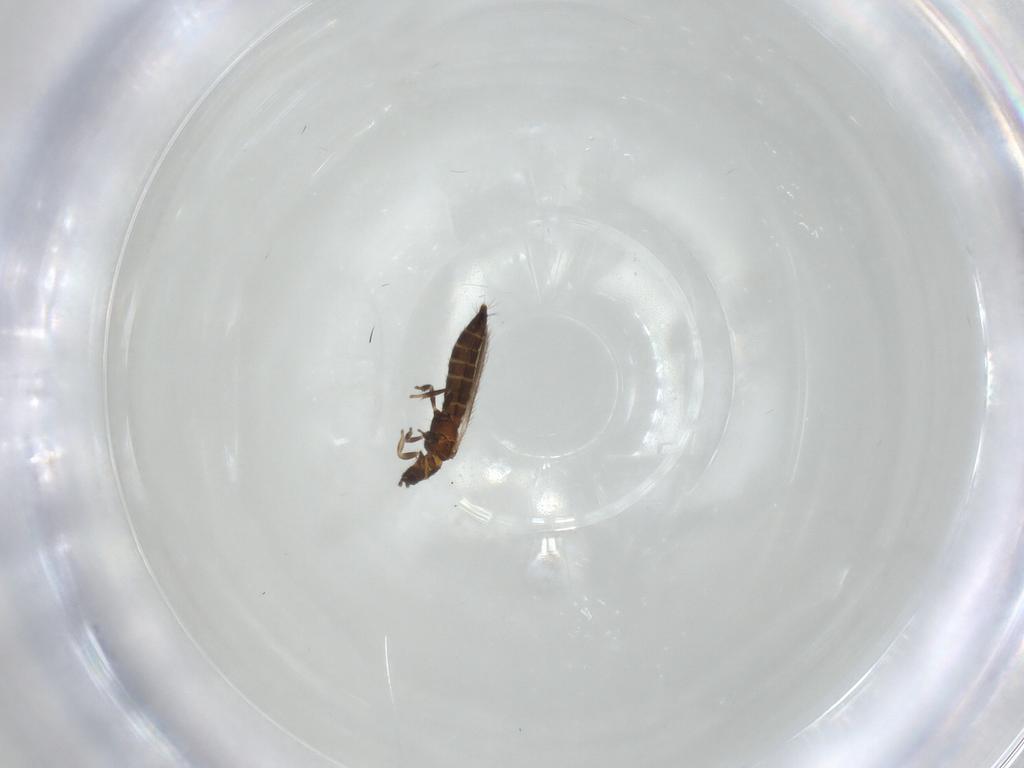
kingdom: Animalia
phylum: Arthropoda
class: Insecta
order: Thysanoptera
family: Thripidae
